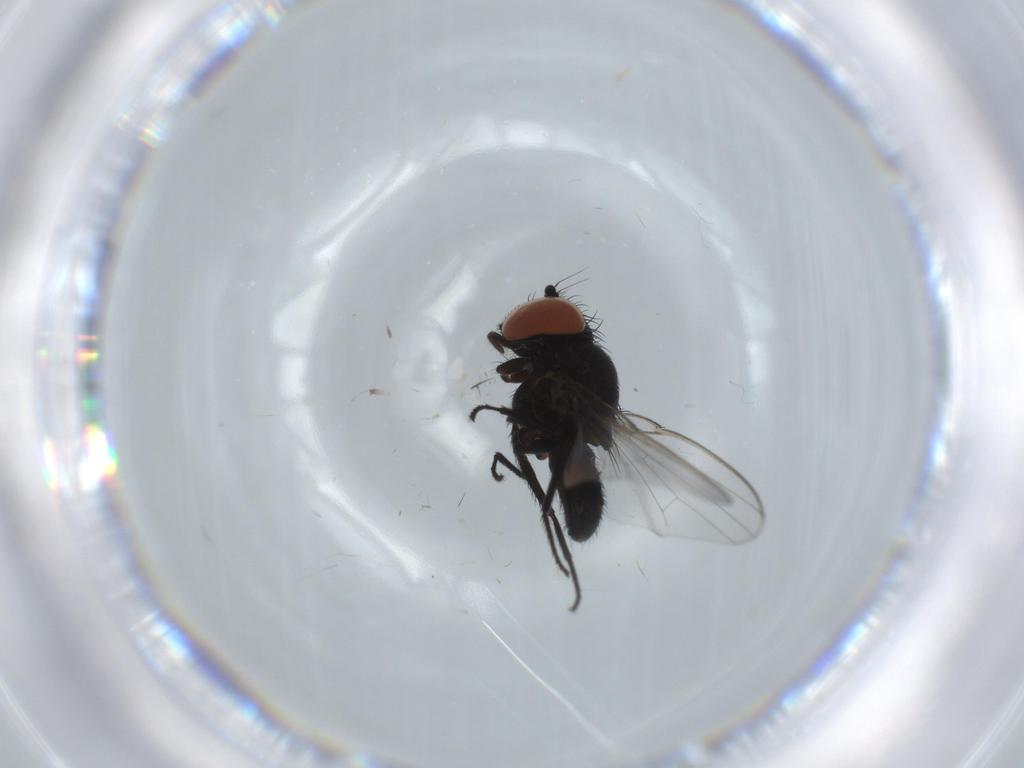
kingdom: Animalia
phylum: Arthropoda
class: Insecta
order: Diptera
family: Milichiidae
